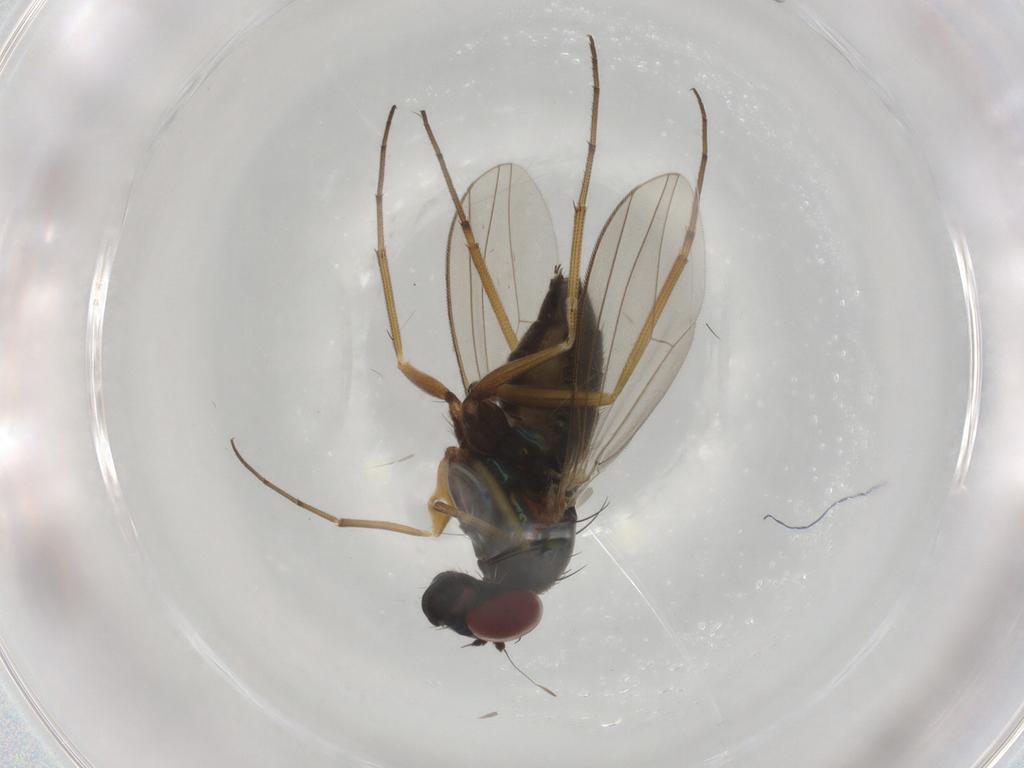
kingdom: Animalia
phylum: Arthropoda
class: Insecta
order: Diptera
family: Dolichopodidae
